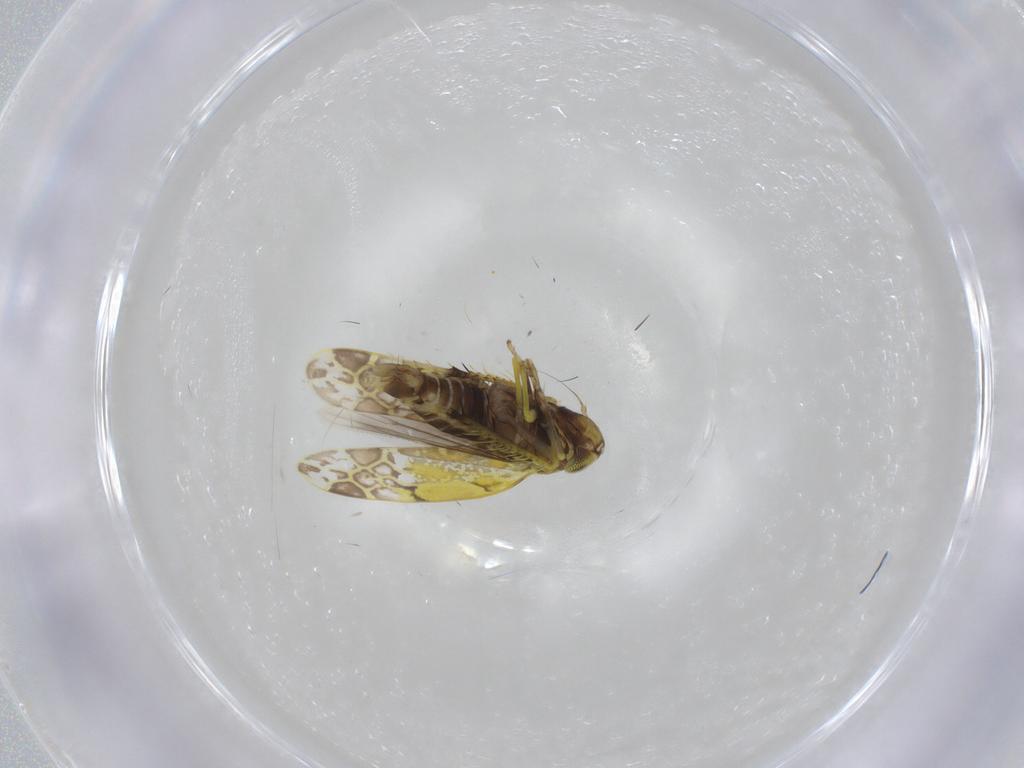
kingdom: Animalia
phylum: Arthropoda
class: Insecta
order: Hemiptera
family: Cicadellidae
